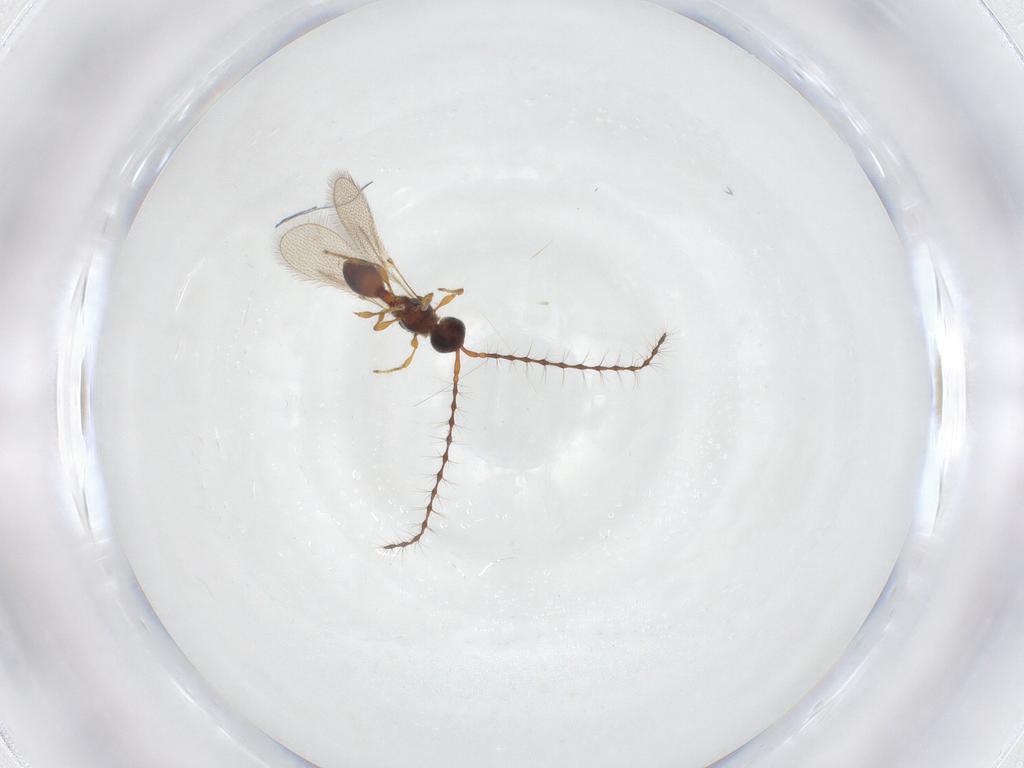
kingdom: Animalia
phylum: Arthropoda
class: Insecta
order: Hymenoptera
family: Diapriidae
